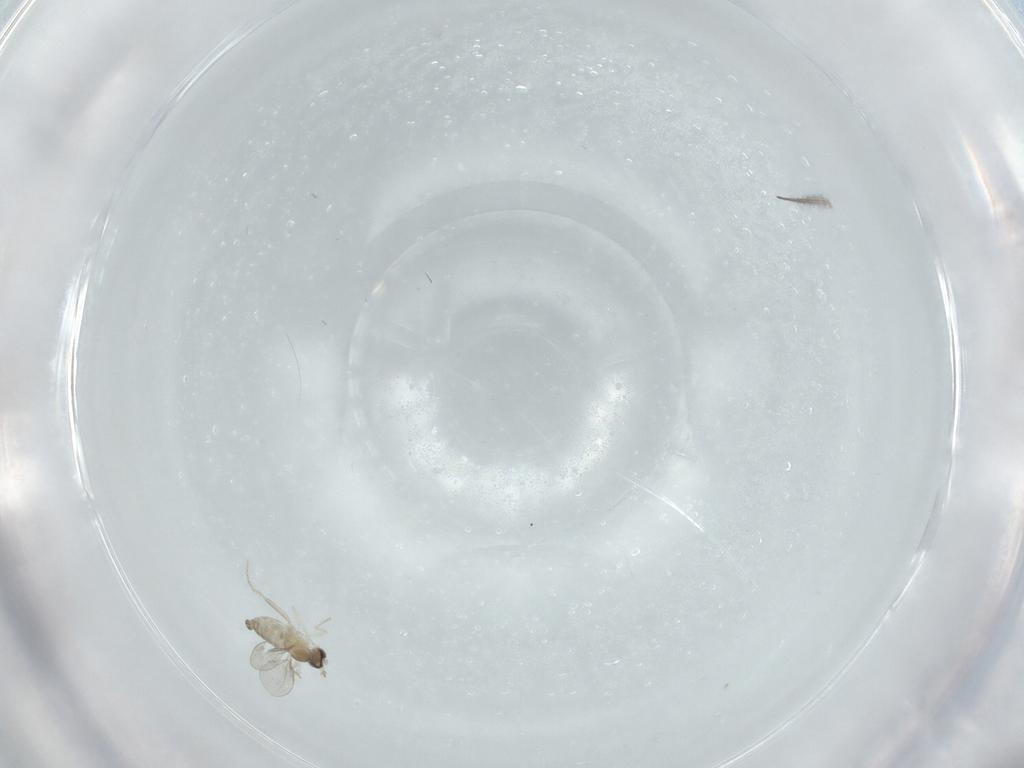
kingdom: Animalia
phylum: Arthropoda
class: Insecta
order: Diptera
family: Cecidomyiidae
